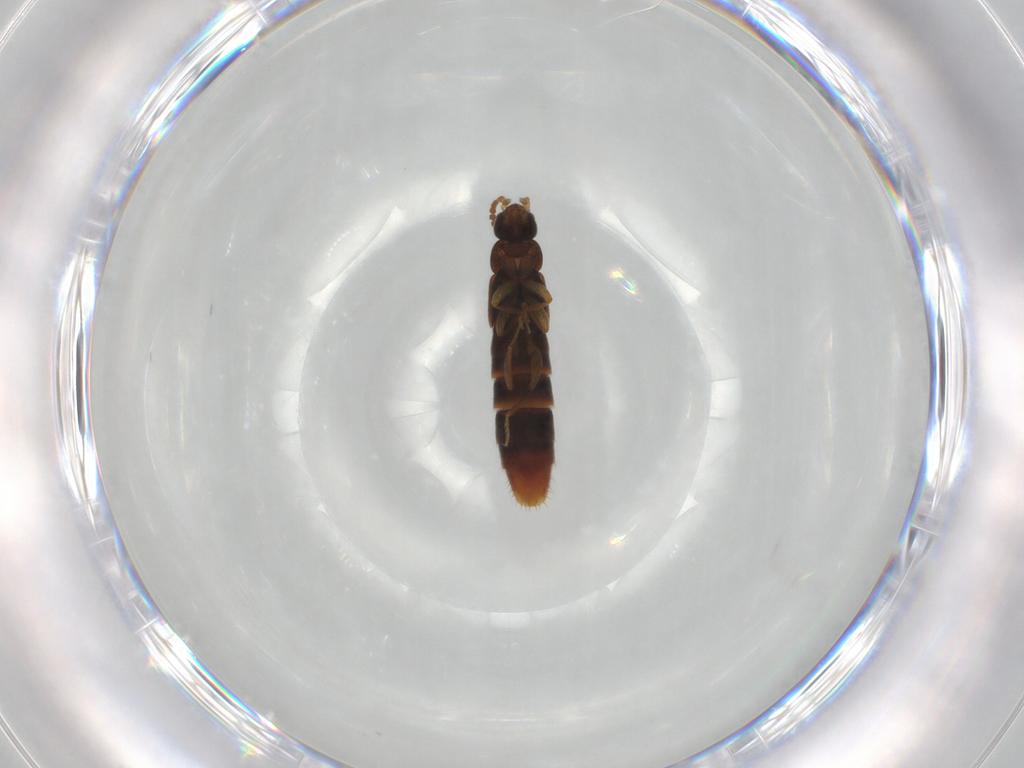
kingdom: Animalia
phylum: Arthropoda
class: Insecta
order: Coleoptera
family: Staphylinidae
